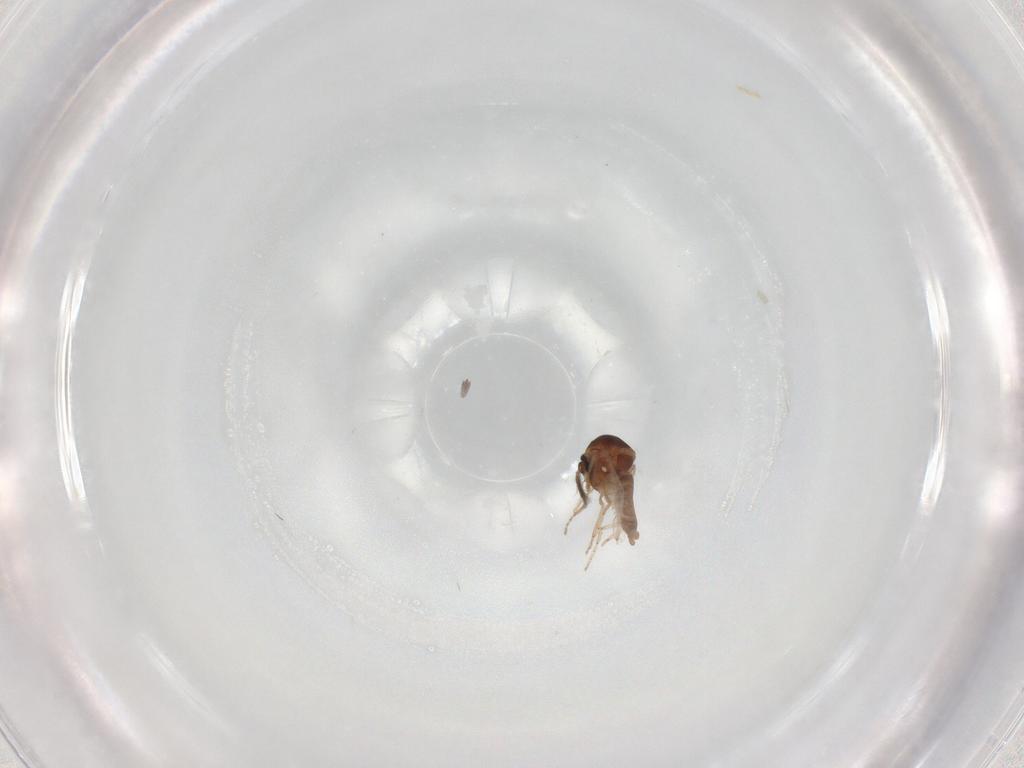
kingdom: Animalia
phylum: Arthropoda
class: Insecta
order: Diptera
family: Ceratopogonidae
